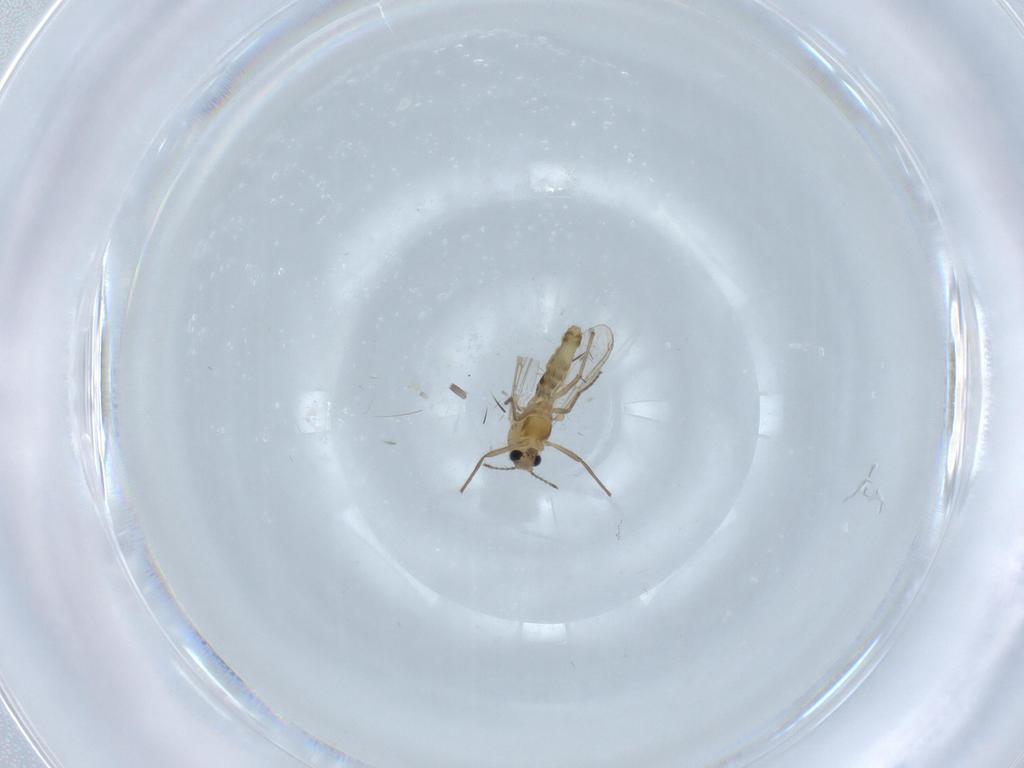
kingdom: Animalia
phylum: Arthropoda
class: Insecta
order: Diptera
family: Chironomidae
